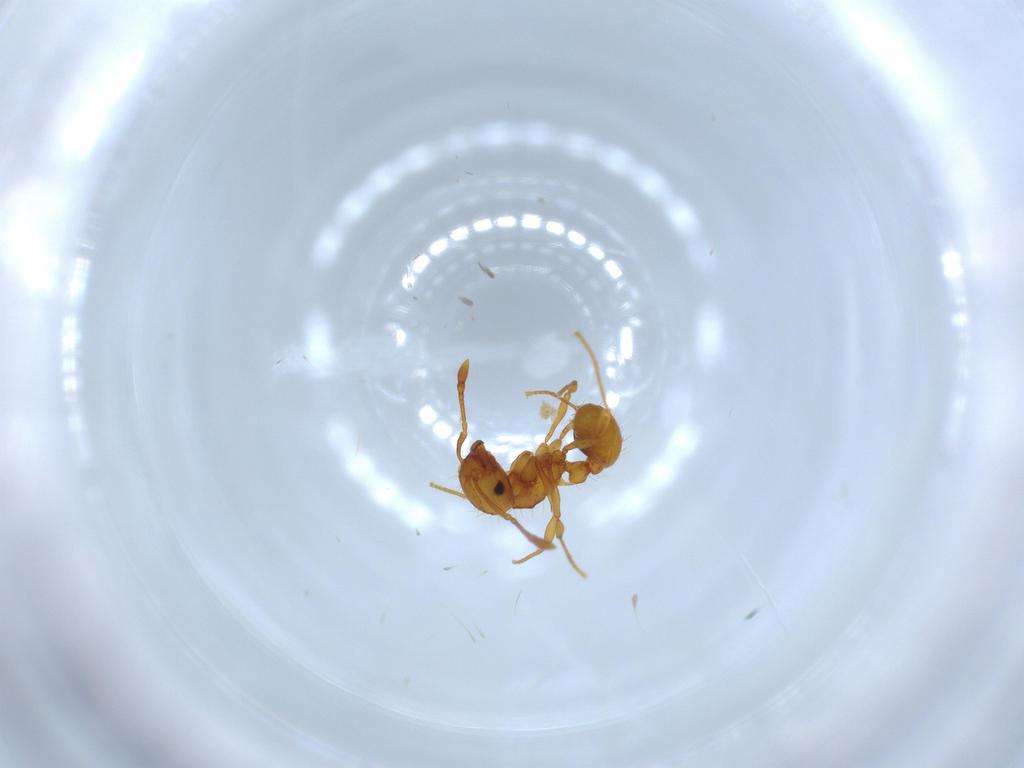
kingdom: Animalia
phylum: Arthropoda
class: Insecta
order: Hymenoptera
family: Formicidae
